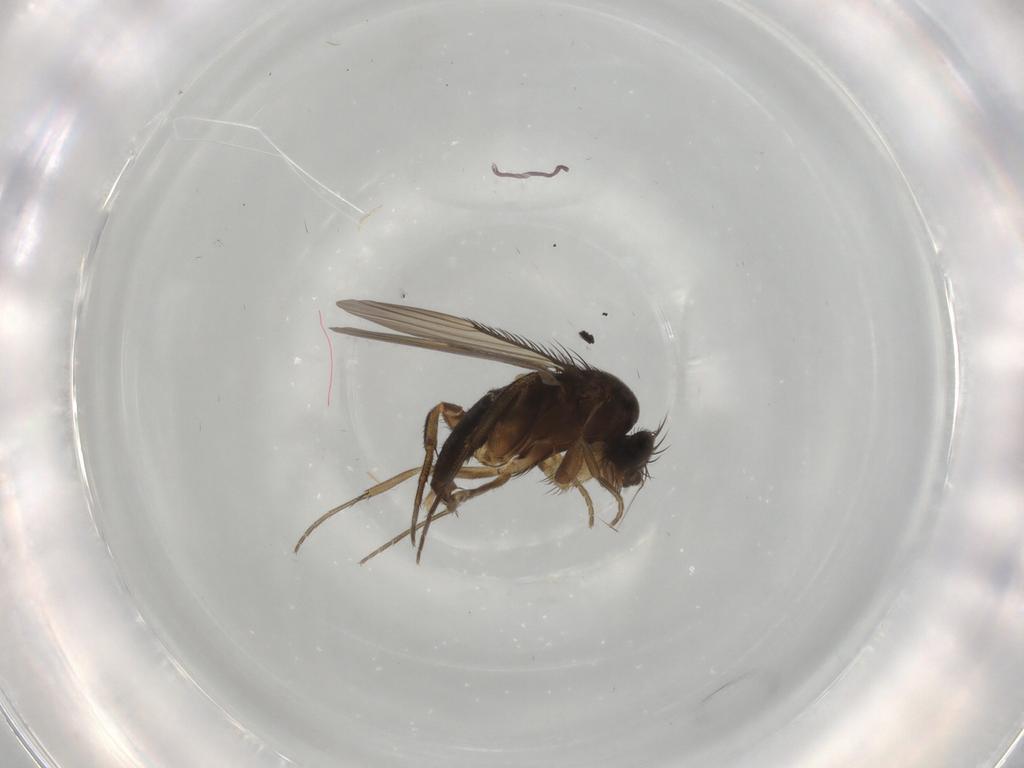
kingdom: Animalia
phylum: Arthropoda
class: Insecta
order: Diptera
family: Phoridae
